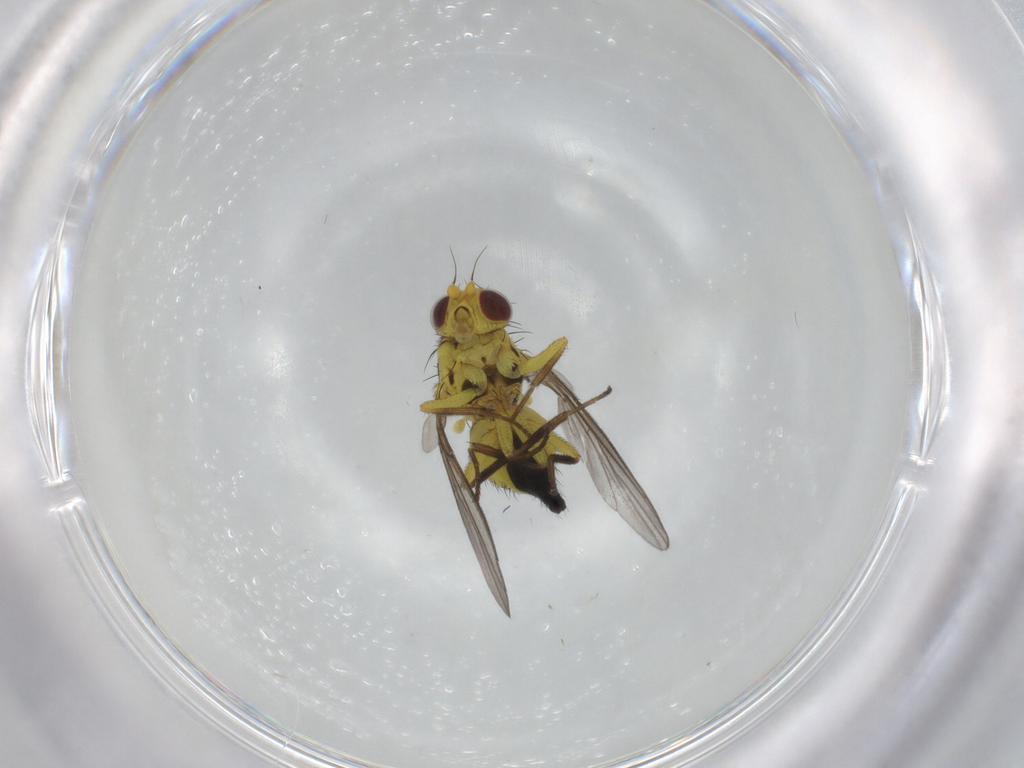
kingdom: Animalia
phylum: Arthropoda
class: Insecta
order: Diptera
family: Agromyzidae
